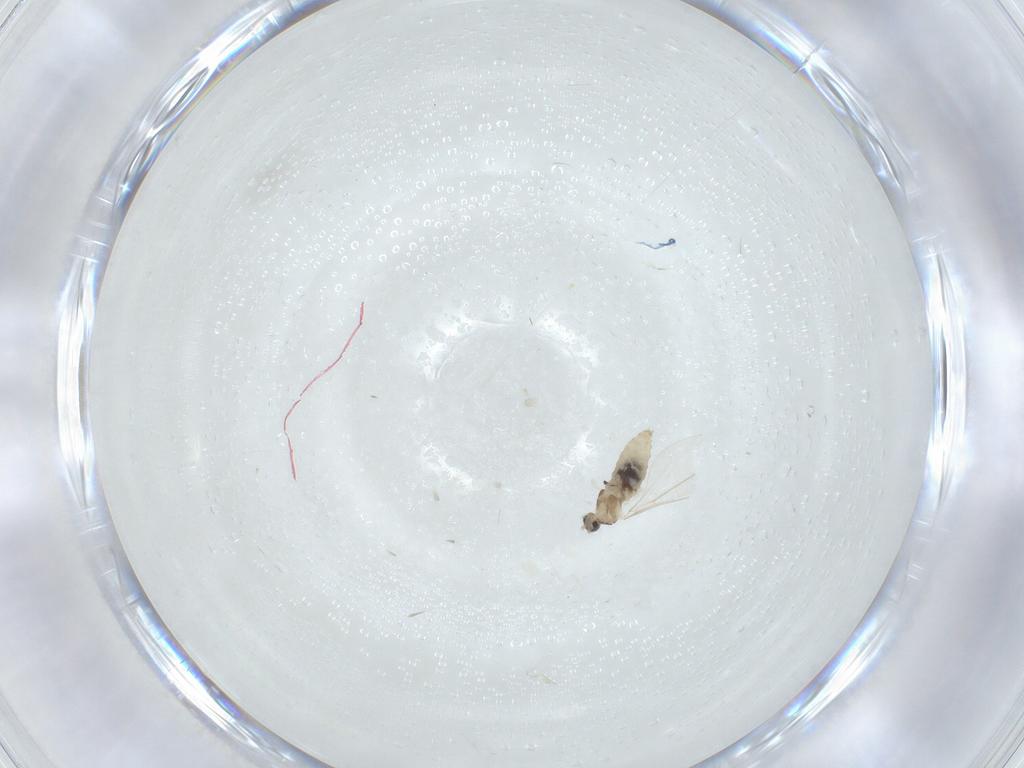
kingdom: Animalia
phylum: Arthropoda
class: Insecta
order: Diptera
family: Cecidomyiidae
